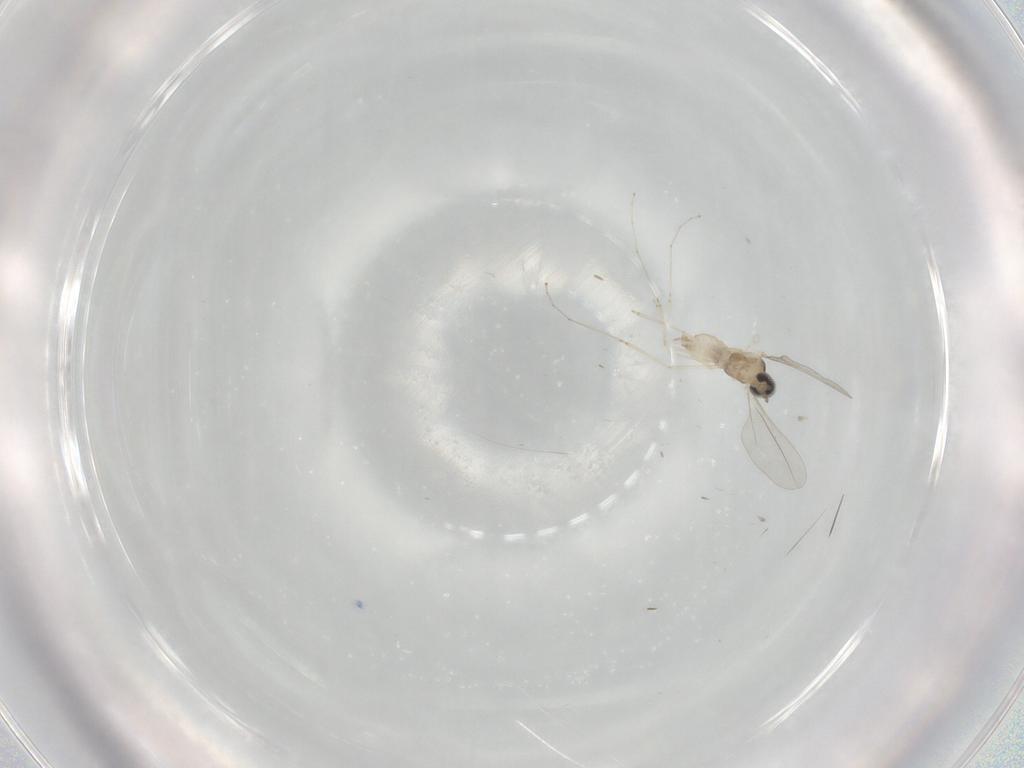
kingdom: Animalia
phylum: Arthropoda
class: Insecta
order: Diptera
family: Cecidomyiidae
